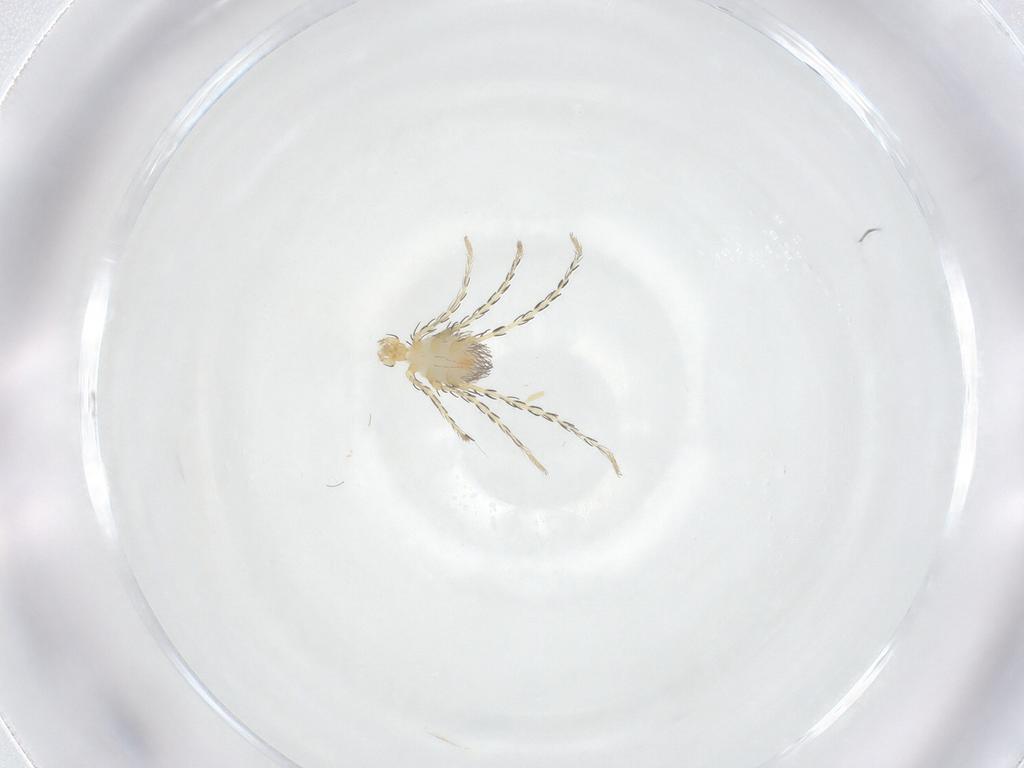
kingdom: Animalia
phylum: Arthropoda
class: Arachnida
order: Trombidiformes
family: Erythraeidae
